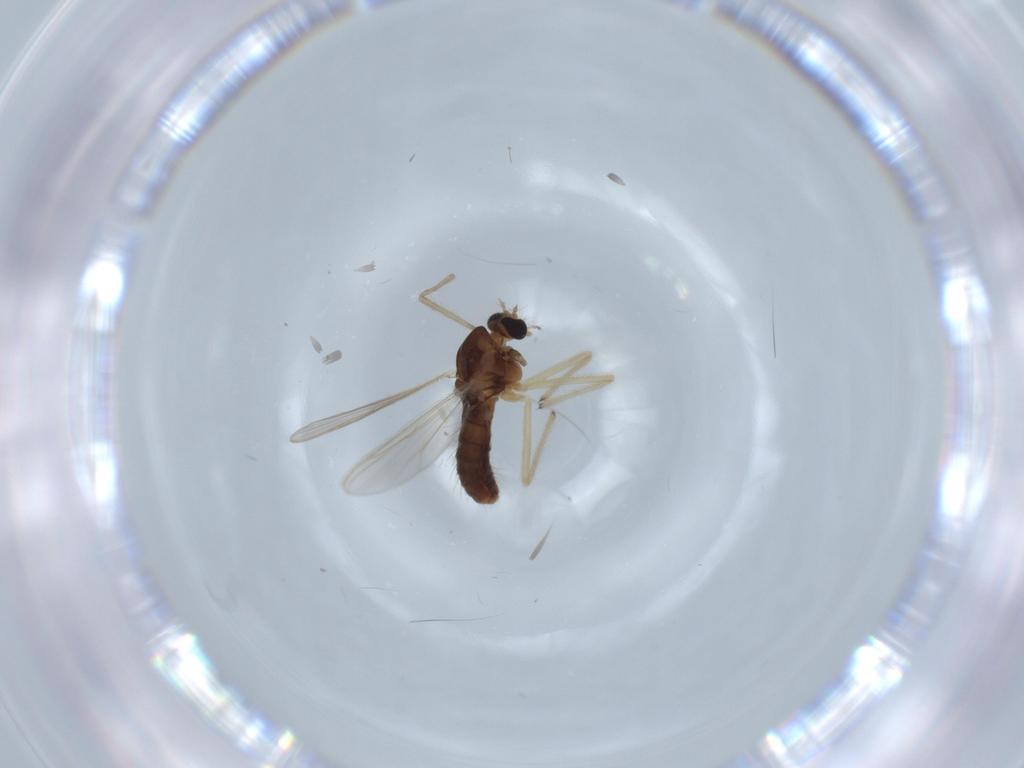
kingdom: Animalia
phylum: Arthropoda
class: Insecta
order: Diptera
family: Chironomidae
